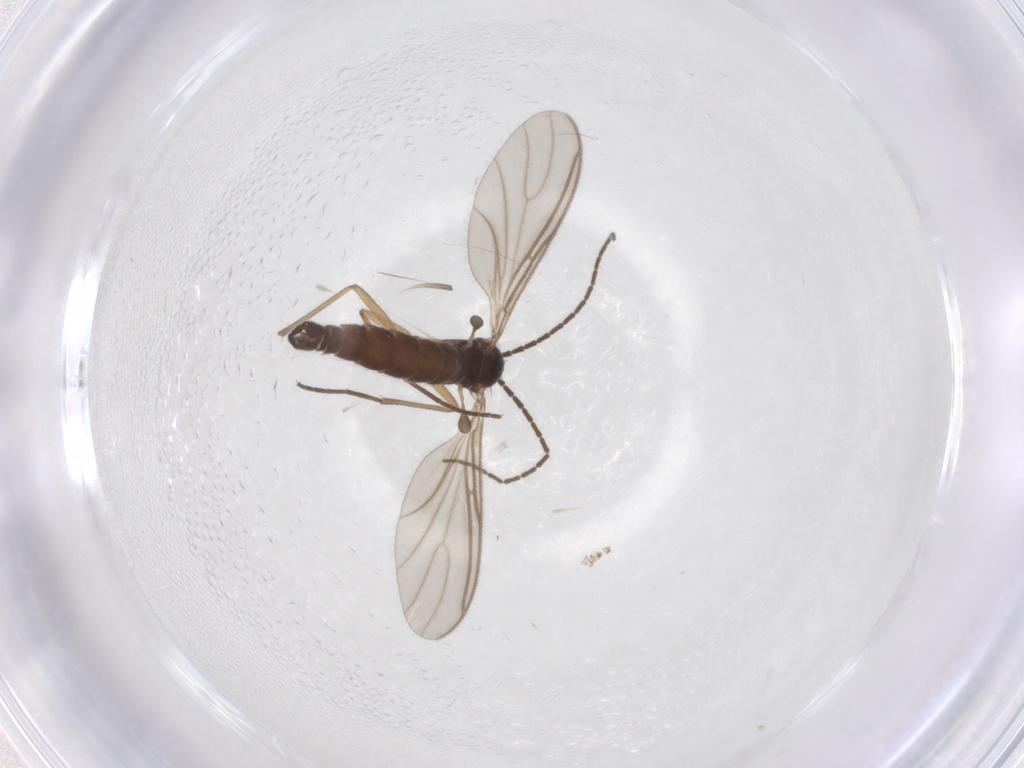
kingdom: Animalia
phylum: Arthropoda
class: Insecta
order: Diptera
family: Sciaridae
